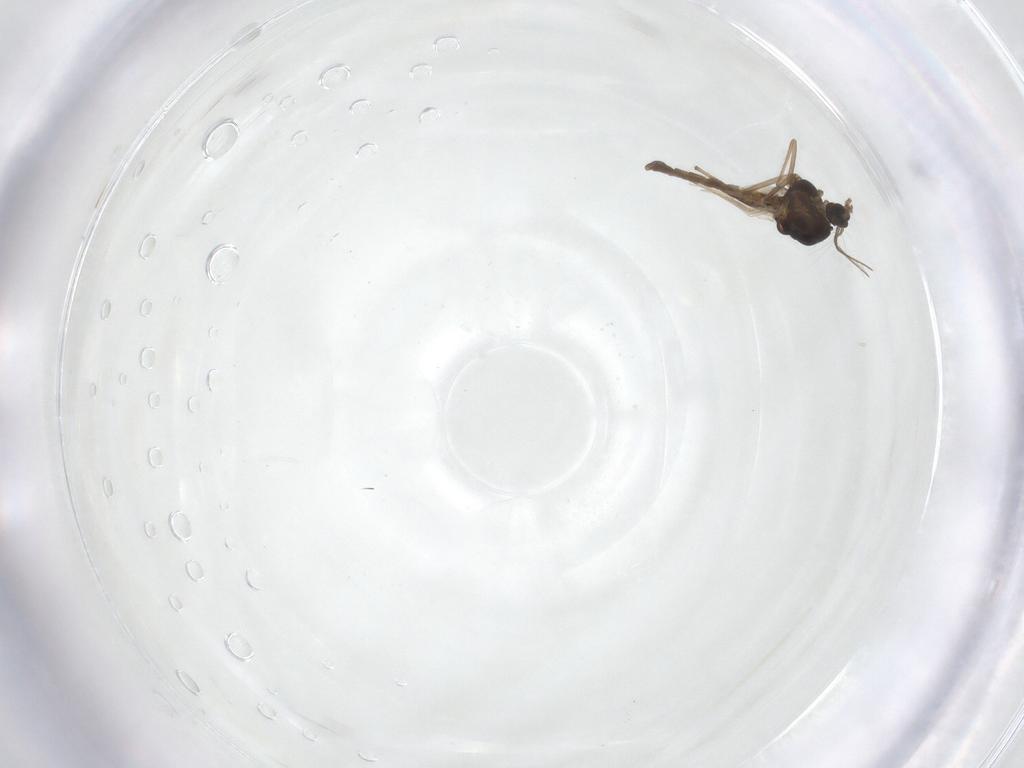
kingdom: Animalia
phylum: Arthropoda
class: Insecta
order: Diptera
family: Chironomidae
